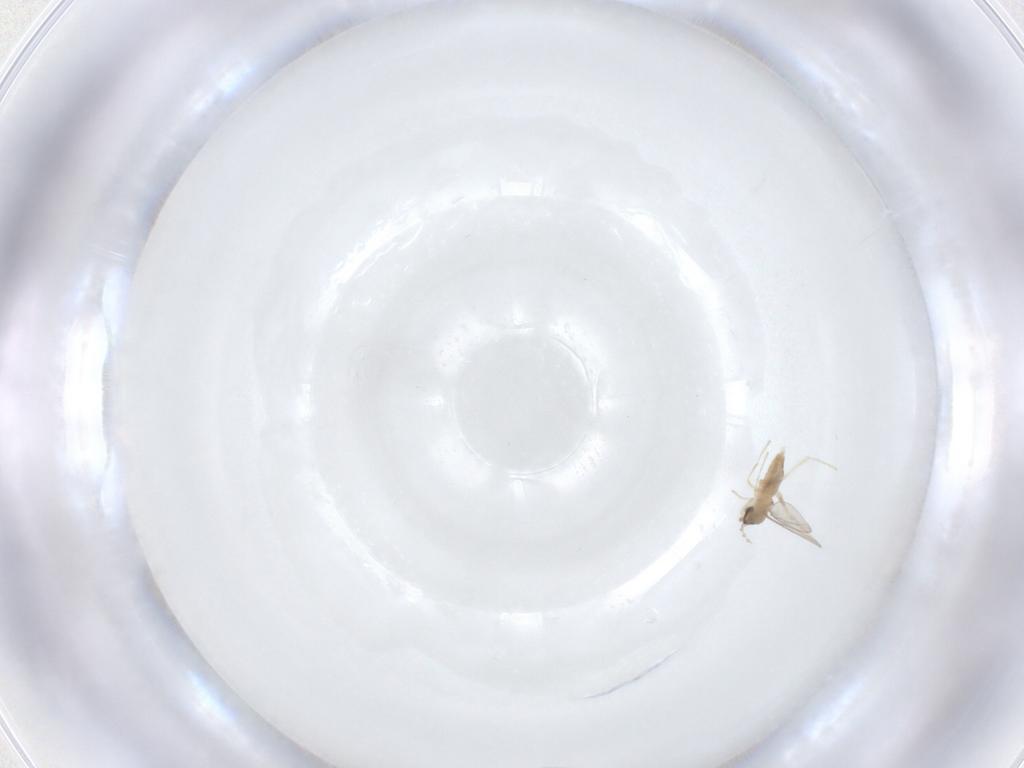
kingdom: Animalia
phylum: Arthropoda
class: Insecta
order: Diptera
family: Cecidomyiidae
